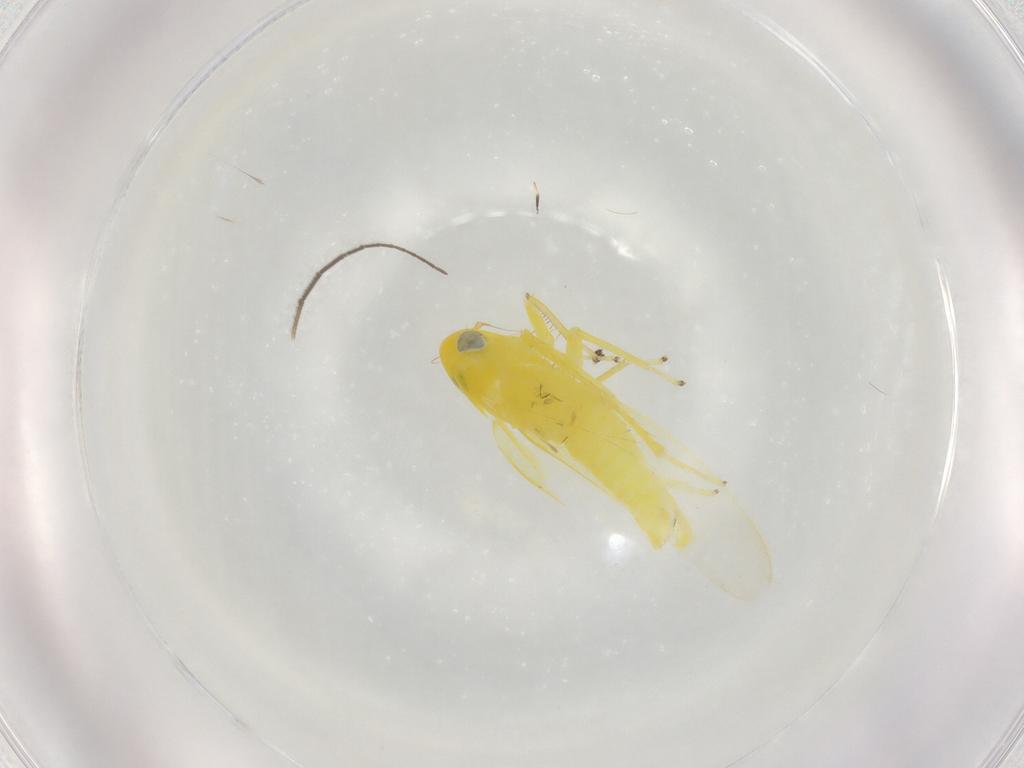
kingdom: Animalia
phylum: Arthropoda
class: Insecta
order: Hemiptera
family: Cicadellidae
